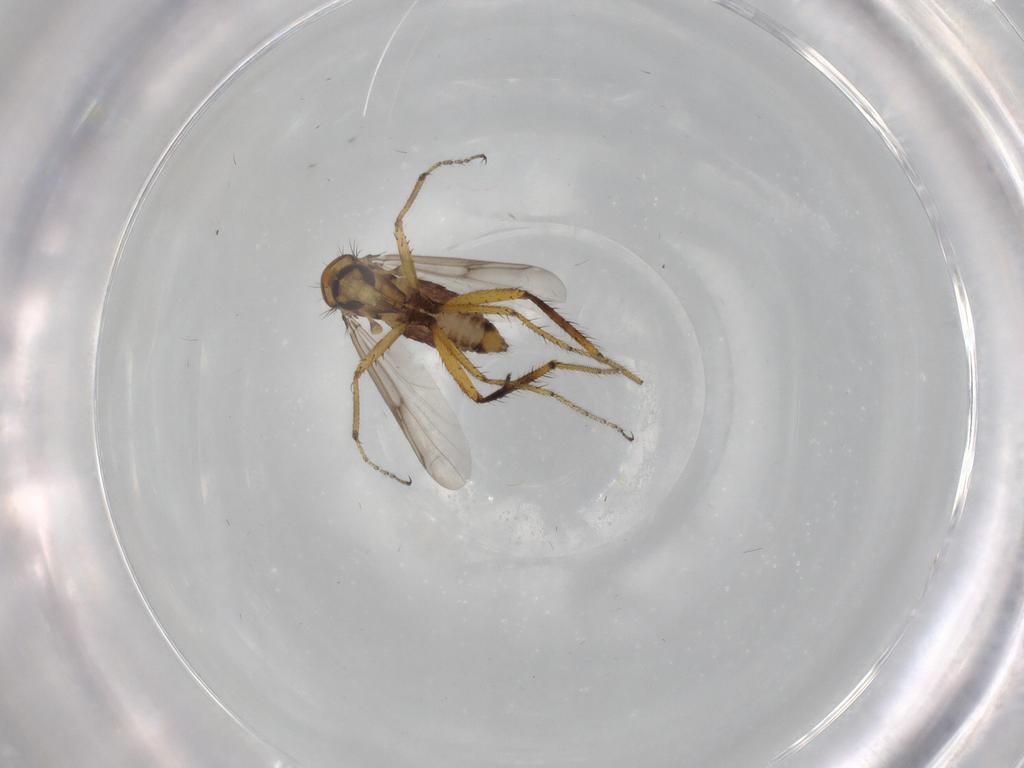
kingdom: Animalia
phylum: Arthropoda
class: Insecta
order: Diptera
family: Ceratopogonidae
